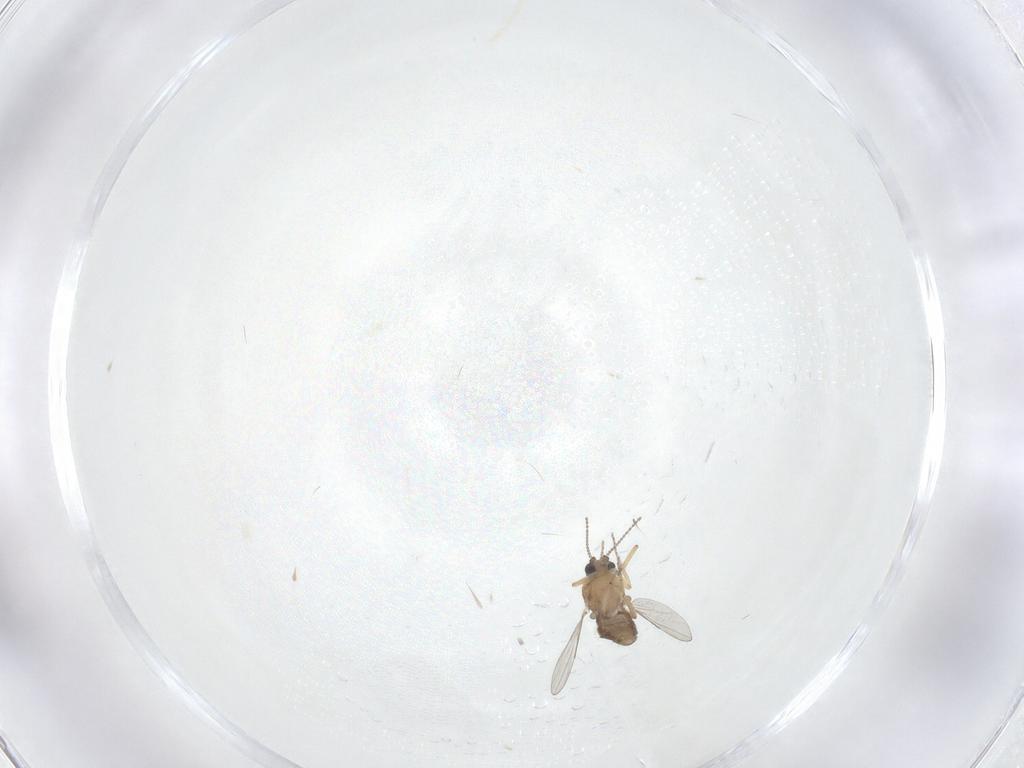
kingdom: Animalia
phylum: Arthropoda
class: Insecta
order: Diptera
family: Ceratopogonidae
